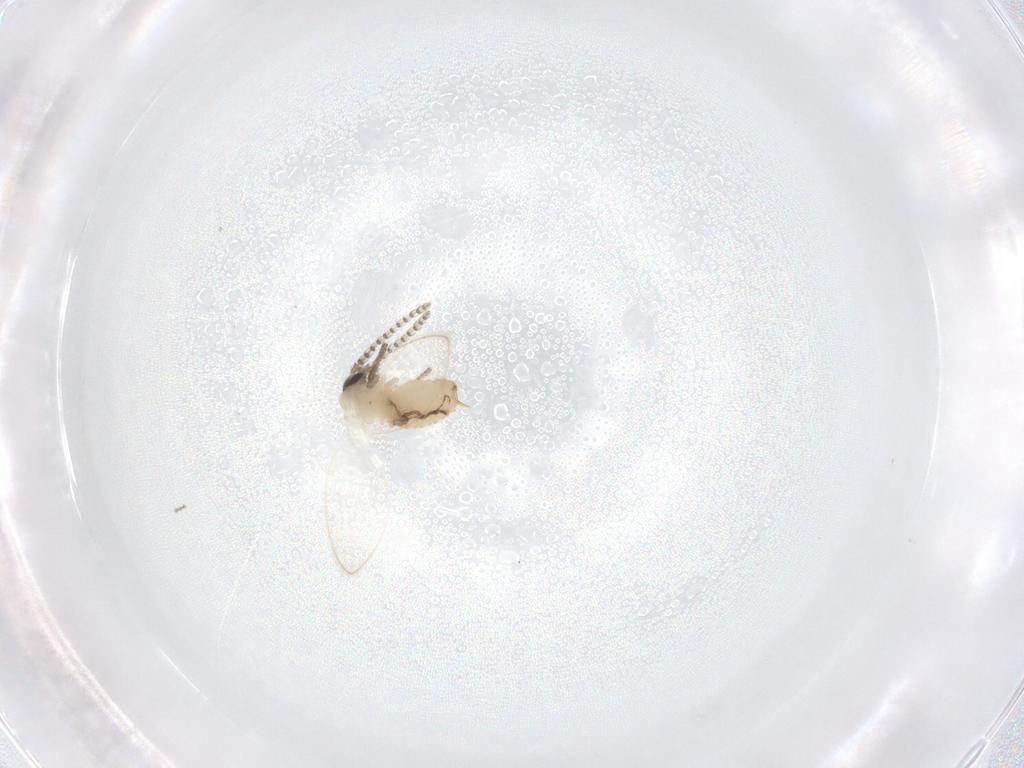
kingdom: Animalia
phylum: Arthropoda
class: Insecta
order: Diptera
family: Psychodidae
